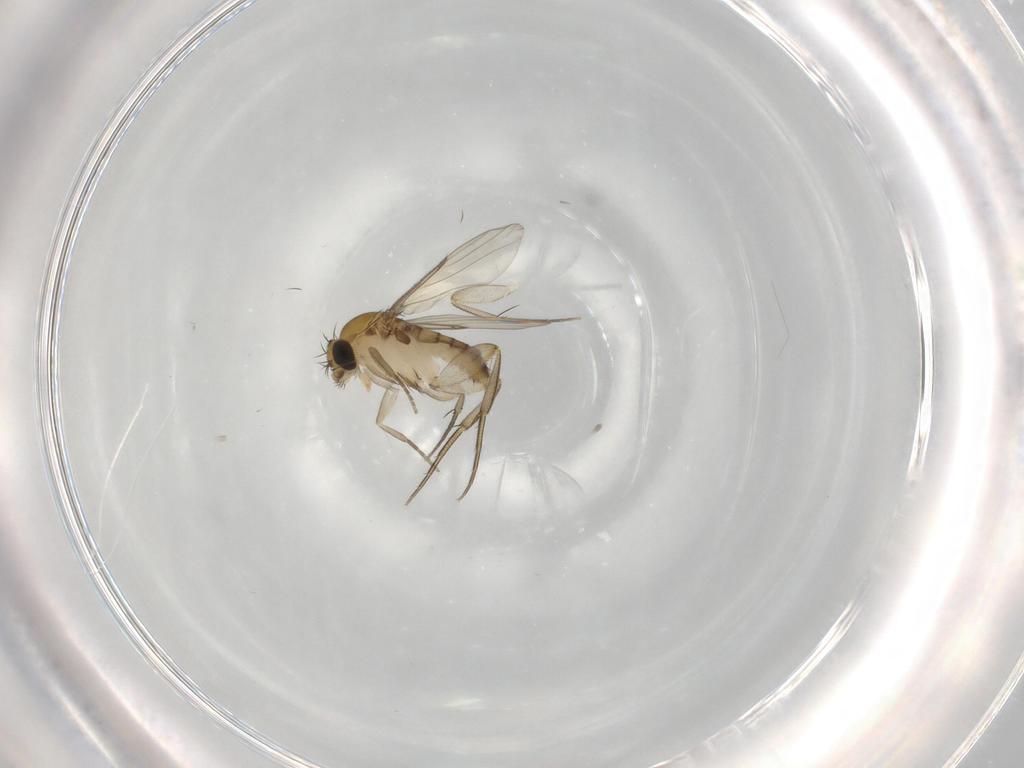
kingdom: Animalia
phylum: Arthropoda
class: Insecta
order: Diptera
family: Phoridae
